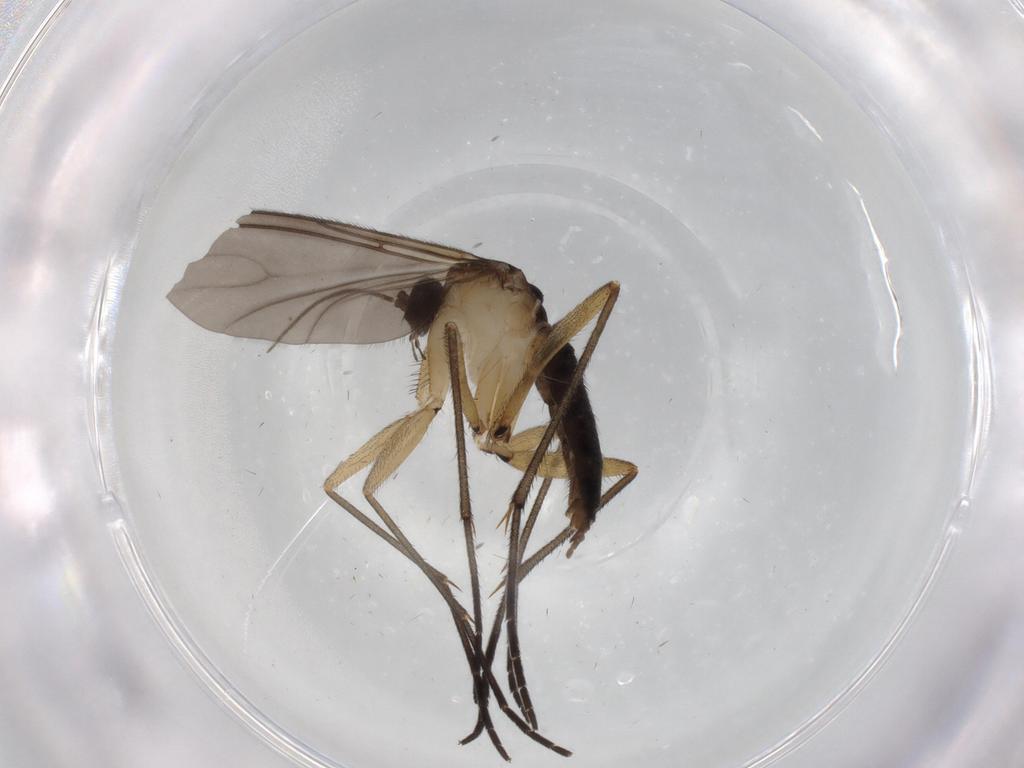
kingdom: Animalia
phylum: Arthropoda
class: Insecta
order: Diptera
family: Sciaridae
